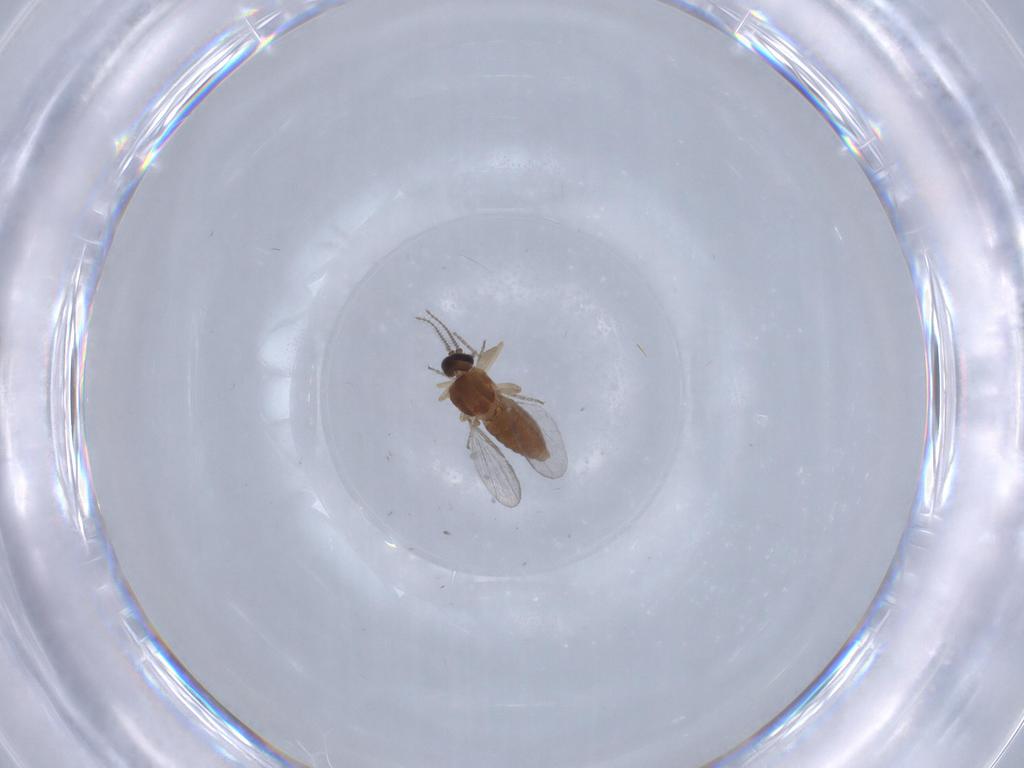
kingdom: Animalia
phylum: Arthropoda
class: Insecta
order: Diptera
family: Ceratopogonidae
